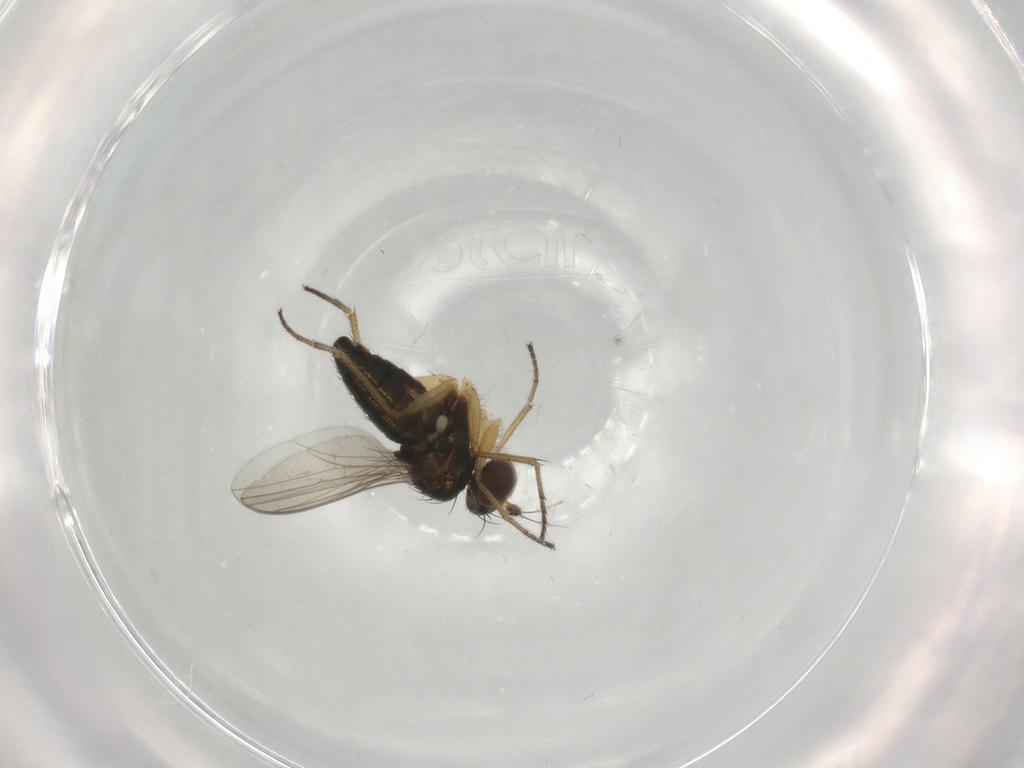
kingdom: Animalia
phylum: Arthropoda
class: Insecta
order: Diptera
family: Dolichopodidae
